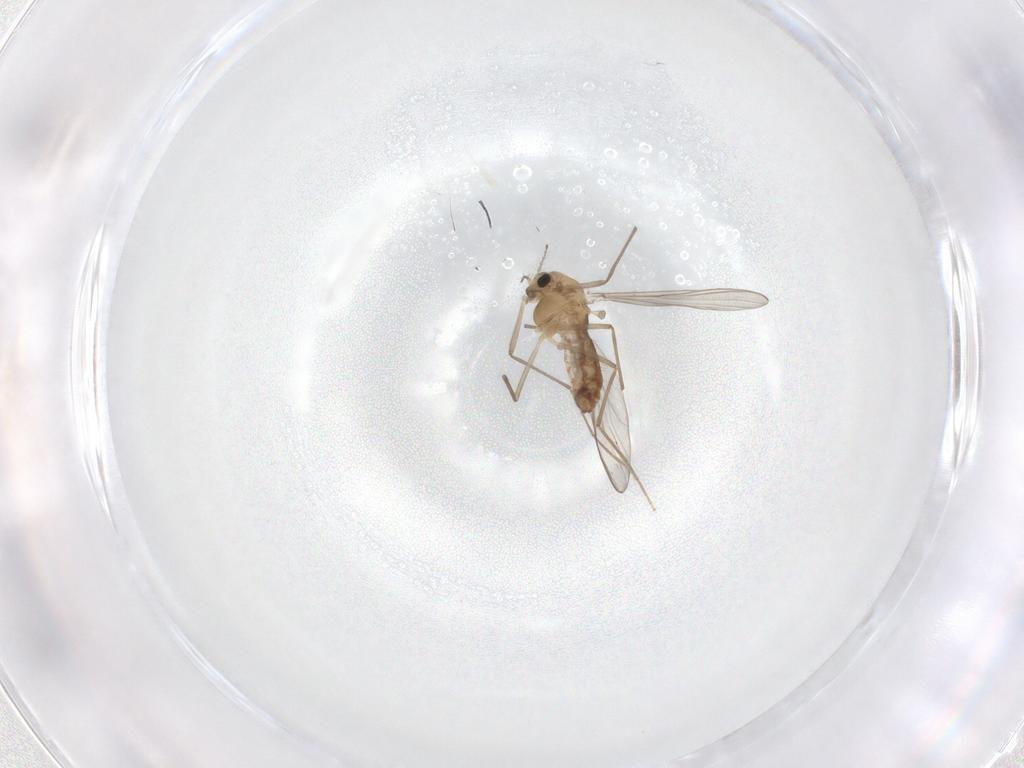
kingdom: Animalia
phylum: Arthropoda
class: Insecta
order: Diptera
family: Chironomidae
